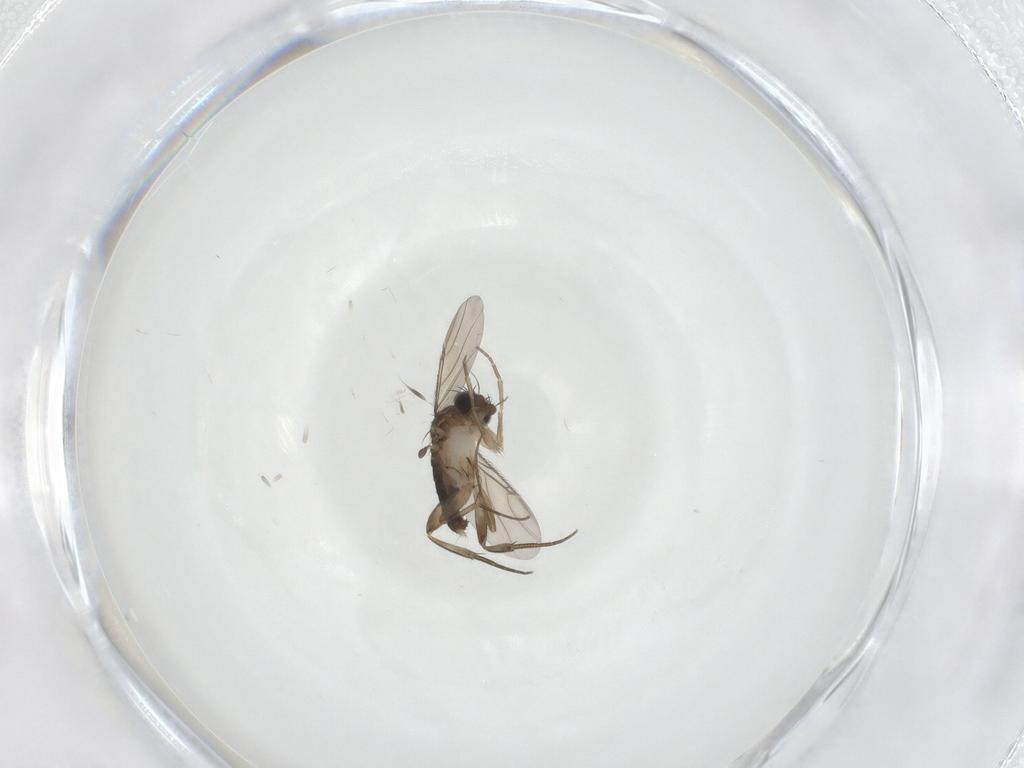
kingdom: Animalia
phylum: Arthropoda
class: Insecta
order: Diptera
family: Phoridae
